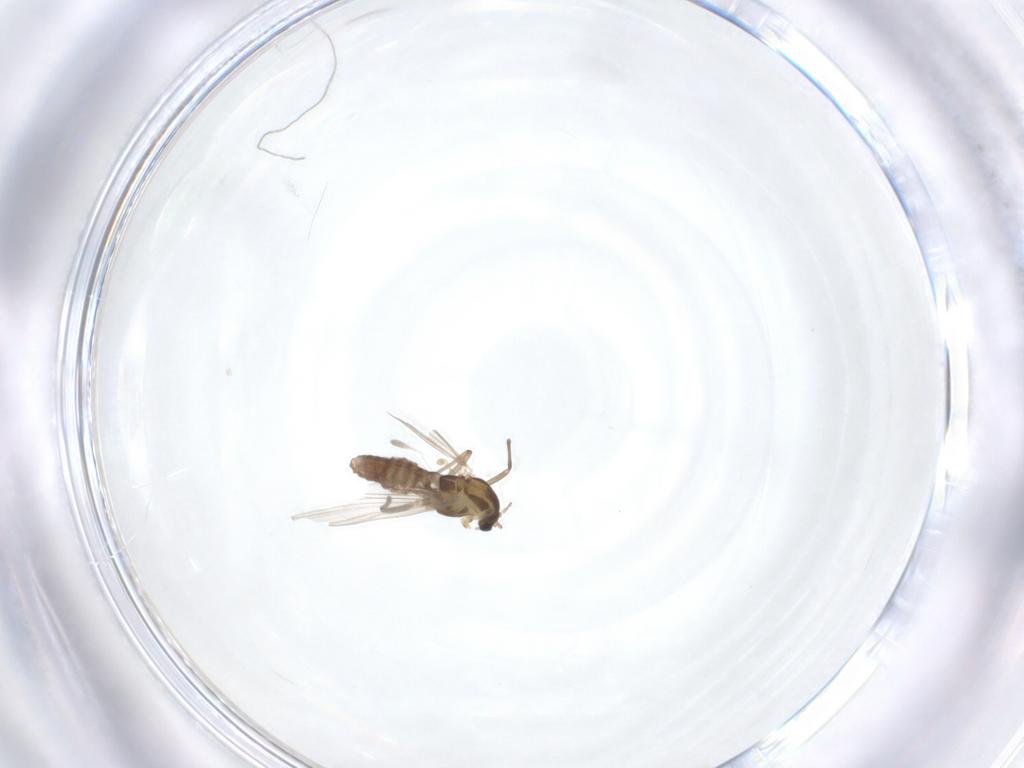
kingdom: Animalia
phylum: Arthropoda
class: Insecta
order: Diptera
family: Chironomidae
